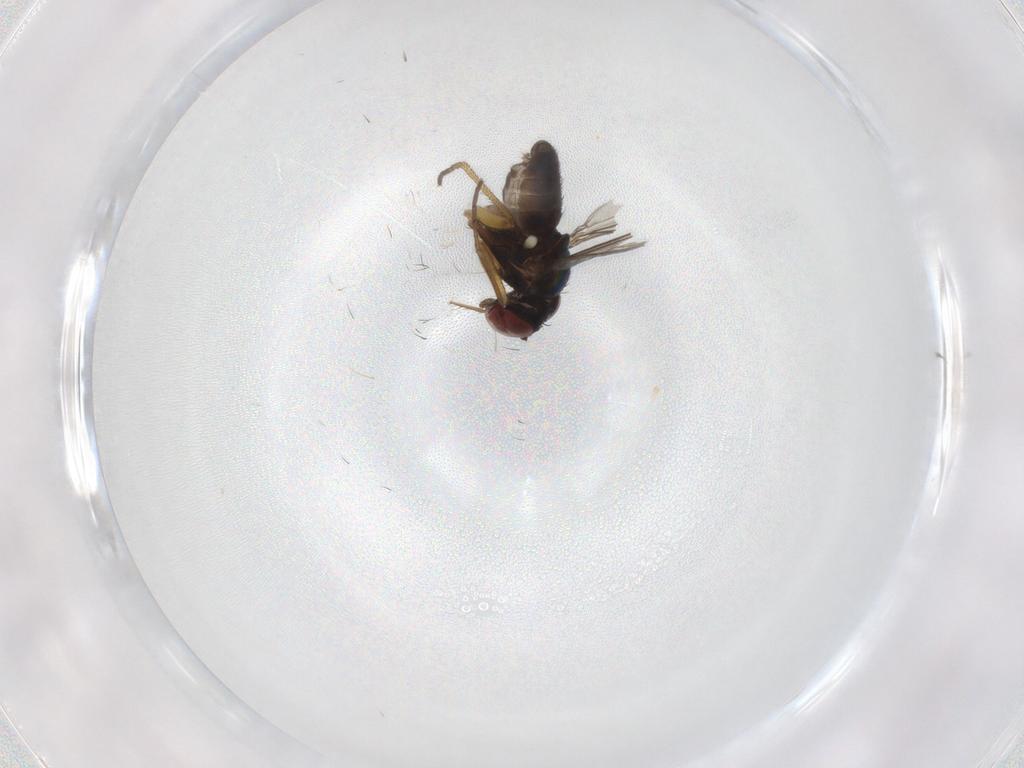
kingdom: Animalia
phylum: Arthropoda
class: Insecta
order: Diptera
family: Dolichopodidae
